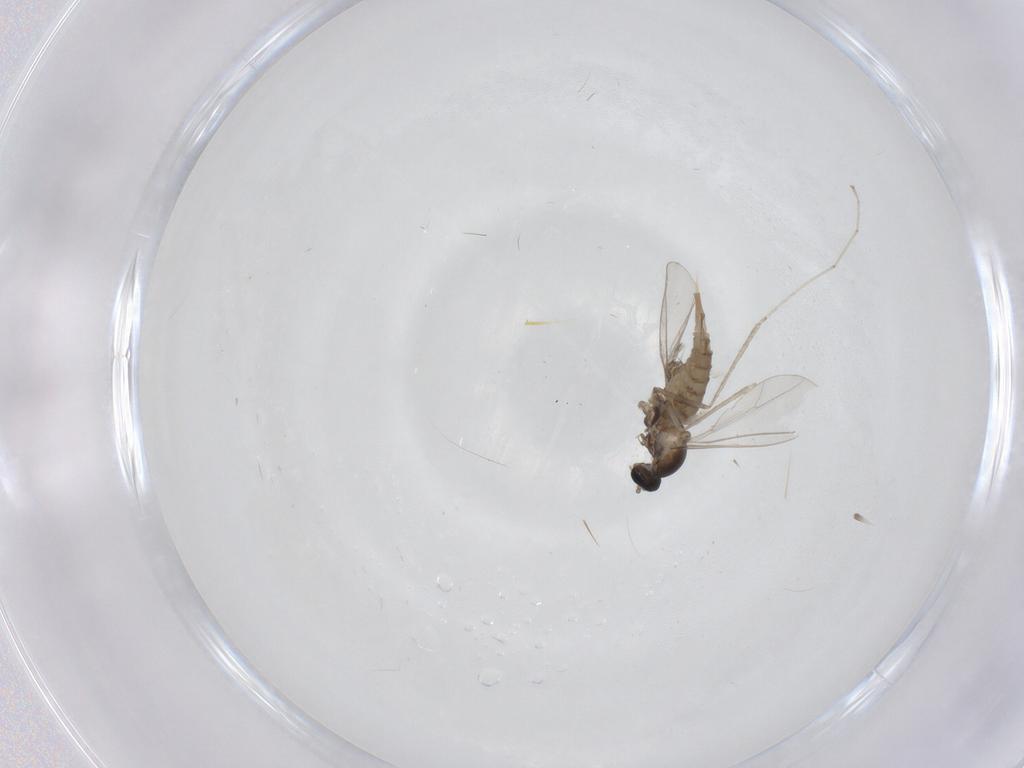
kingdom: Animalia
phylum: Arthropoda
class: Insecta
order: Diptera
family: Cecidomyiidae
